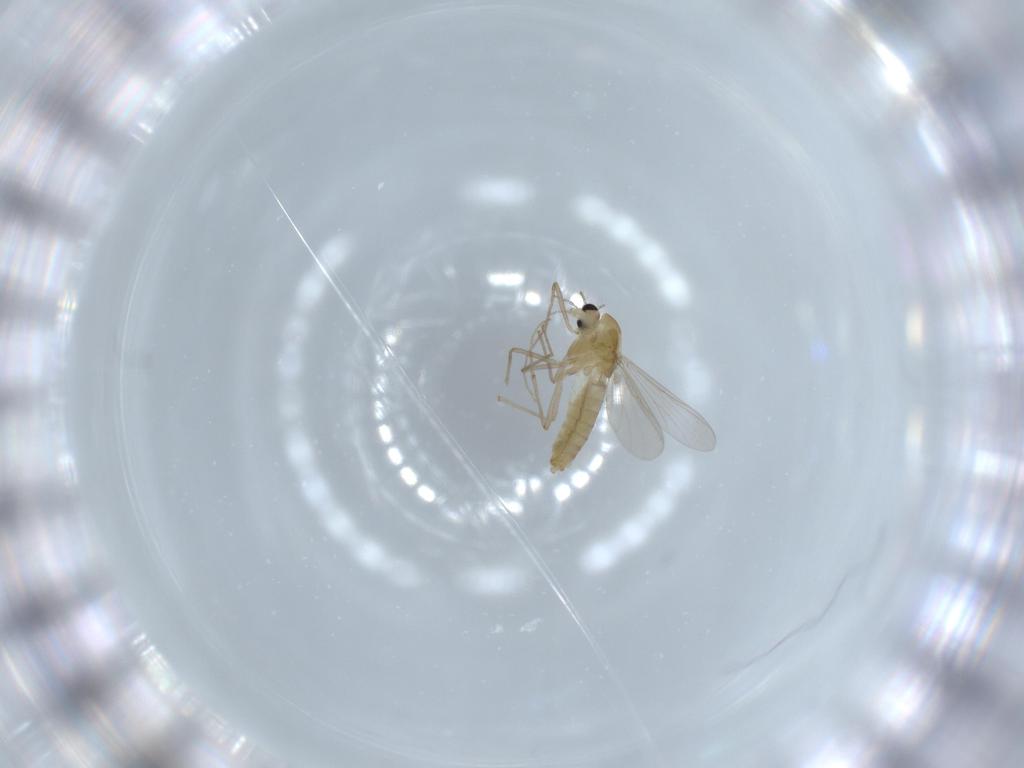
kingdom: Animalia
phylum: Arthropoda
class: Insecta
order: Diptera
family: Chironomidae
